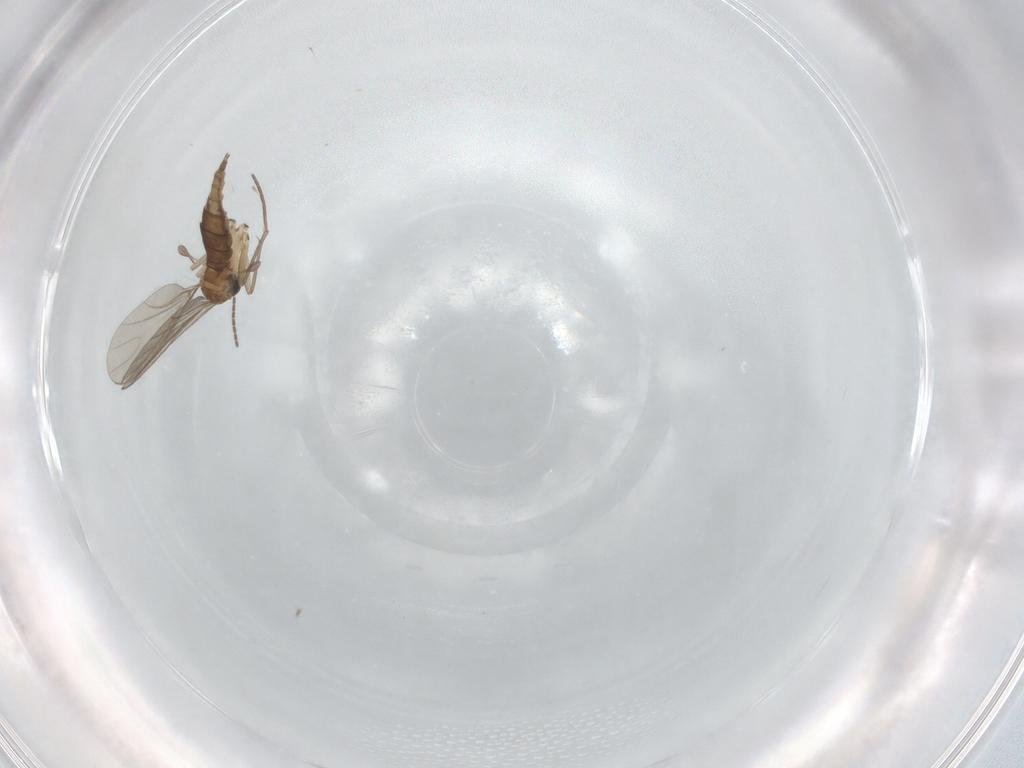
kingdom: Animalia
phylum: Arthropoda
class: Insecta
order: Diptera
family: Sciaridae
